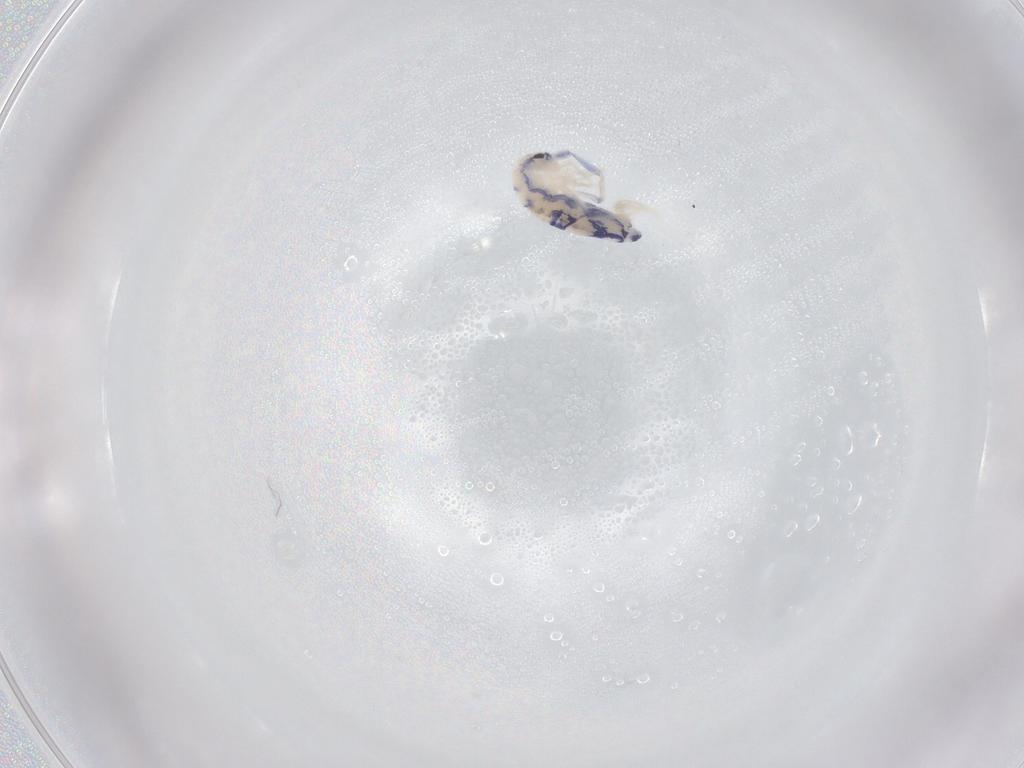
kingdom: Animalia
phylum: Arthropoda
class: Collembola
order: Entomobryomorpha
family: Entomobryidae
